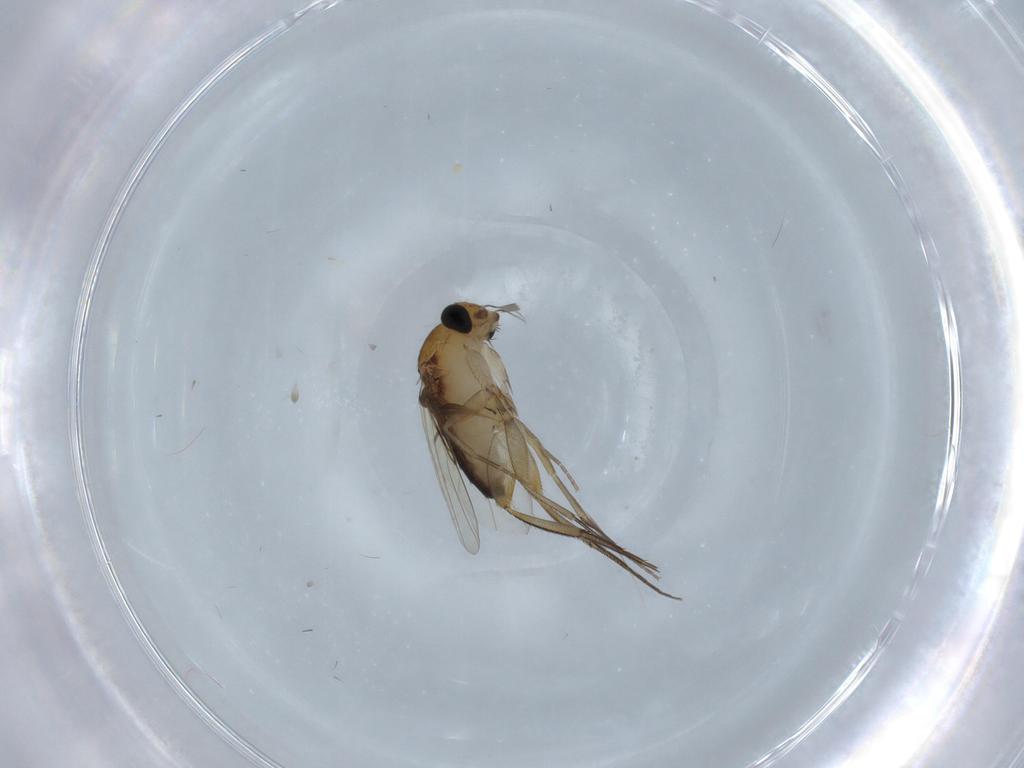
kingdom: Animalia
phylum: Arthropoda
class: Insecta
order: Diptera
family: Ceratopogonidae
